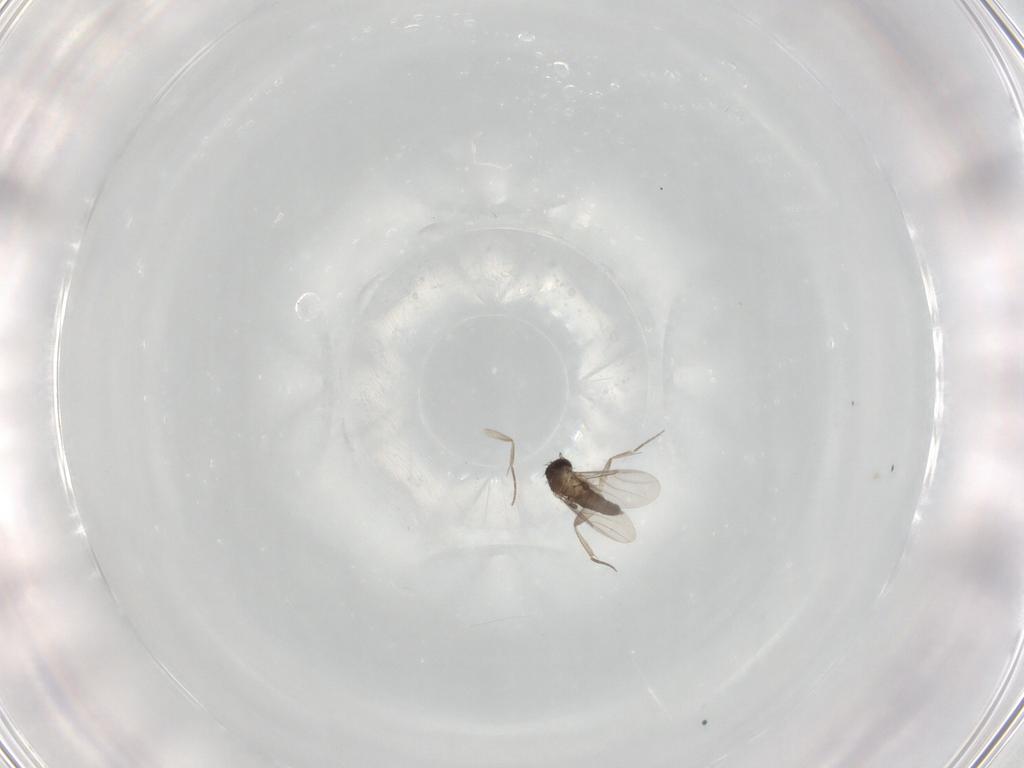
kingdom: Animalia
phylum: Arthropoda
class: Insecta
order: Diptera
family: Phoridae
